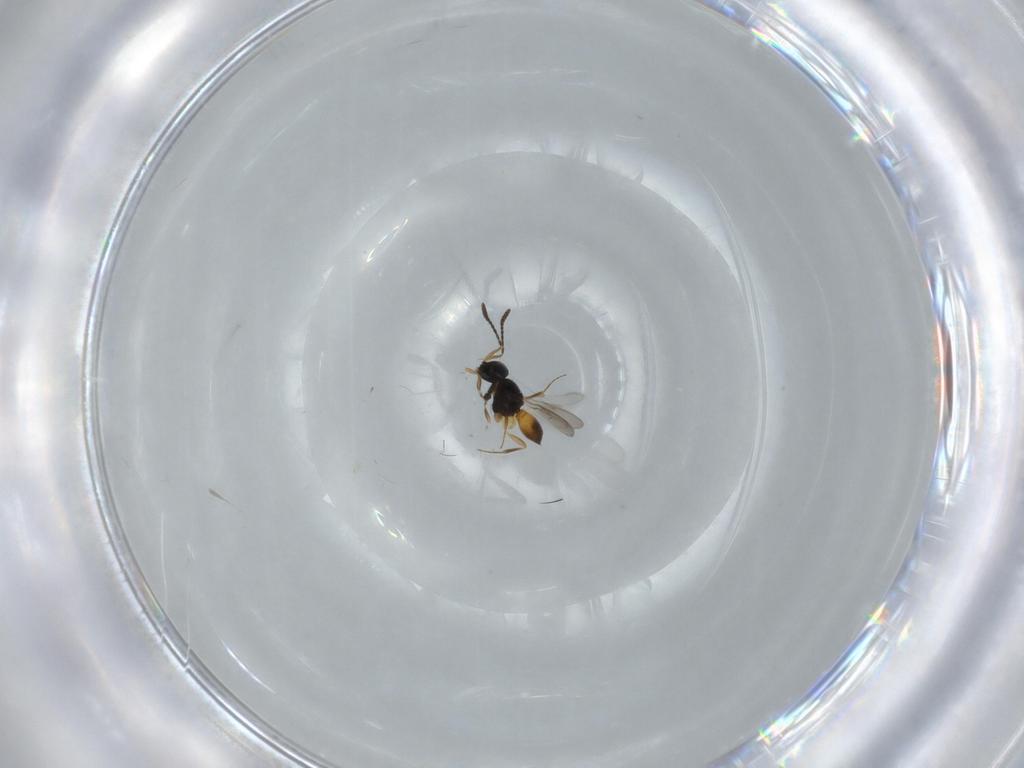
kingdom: Animalia
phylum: Arthropoda
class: Insecta
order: Hymenoptera
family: Scelionidae
